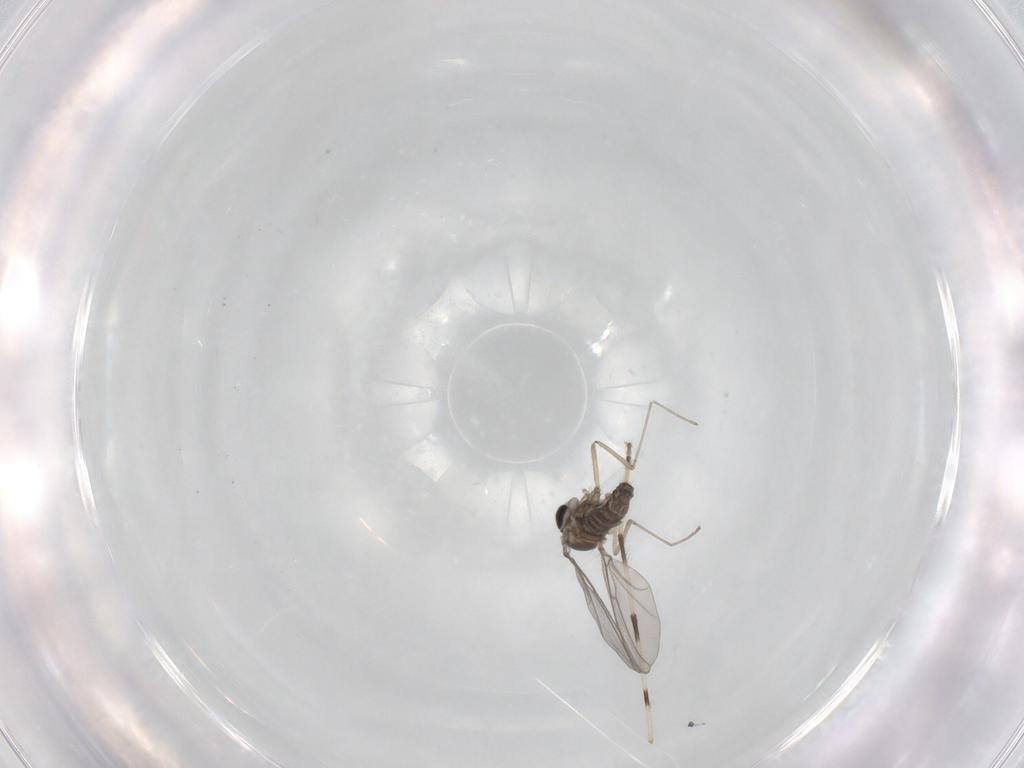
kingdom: Animalia
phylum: Arthropoda
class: Insecta
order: Diptera
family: Cecidomyiidae
